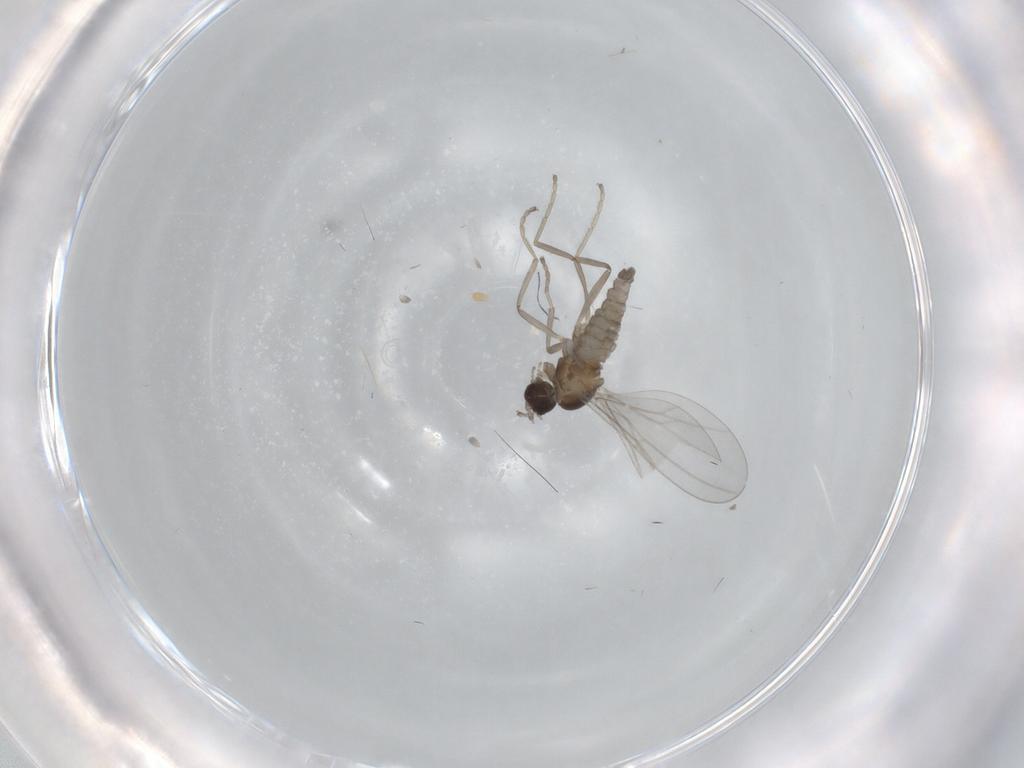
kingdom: Animalia
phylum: Arthropoda
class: Insecta
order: Diptera
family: Cecidomyiidae
